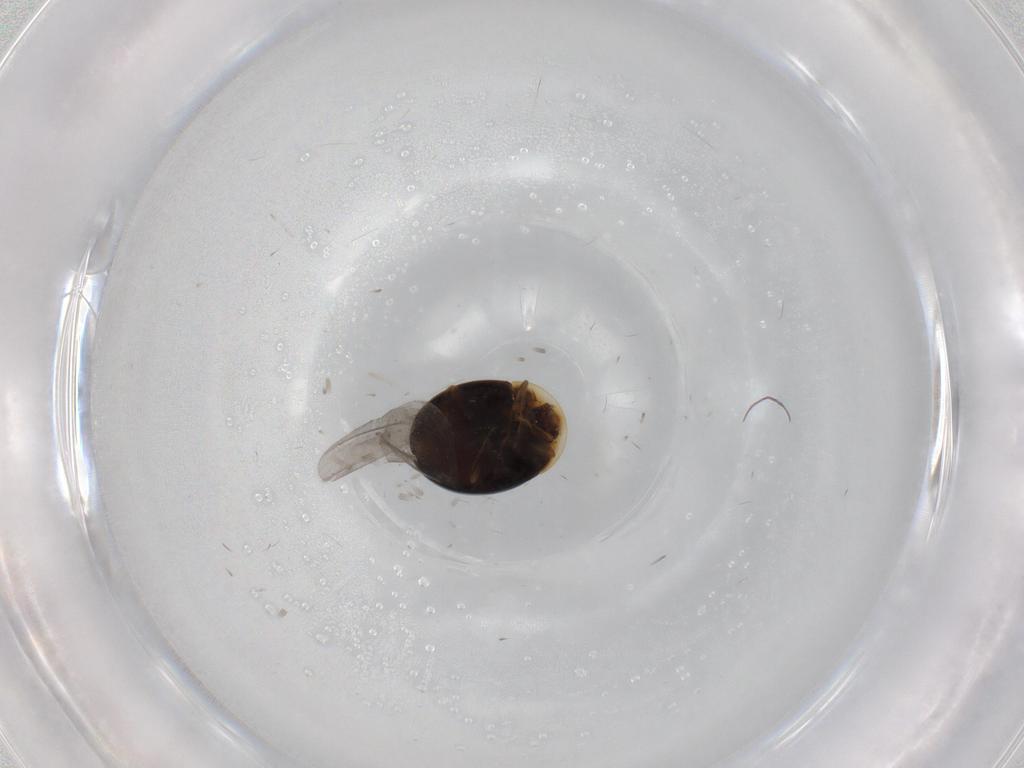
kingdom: Animalia
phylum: Arthropoda
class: Insecta
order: Coleoptera
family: Corylophidae
